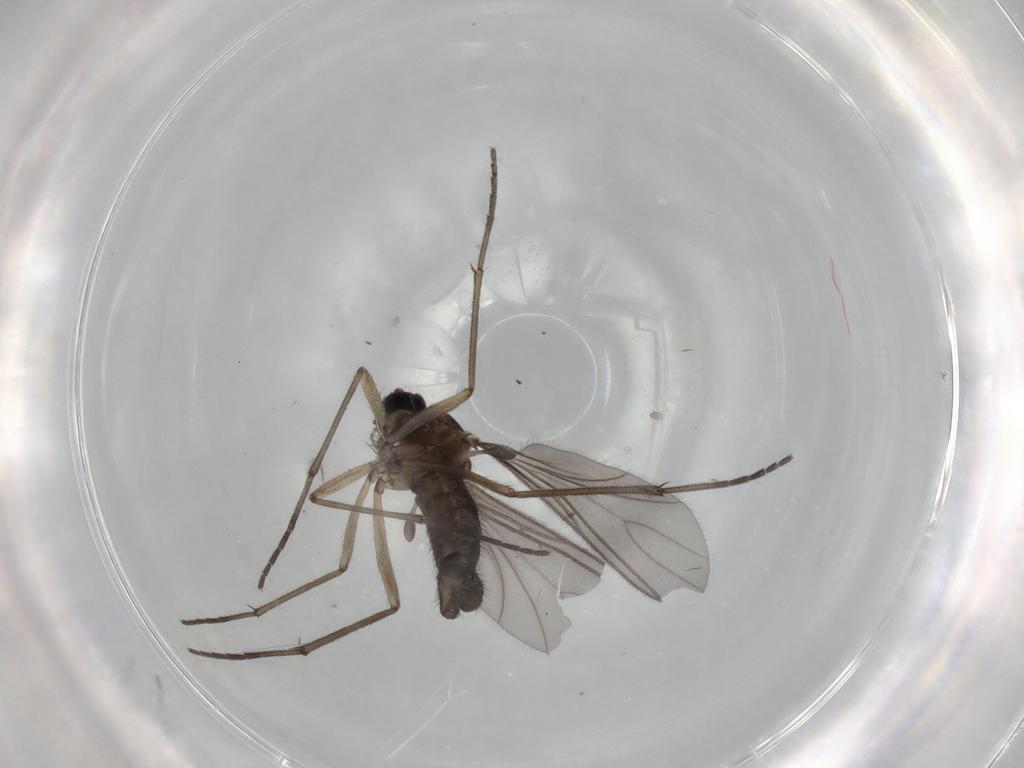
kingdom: Animalia
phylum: Arthropoda
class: Insecta
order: Diptera
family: Sciaridae
